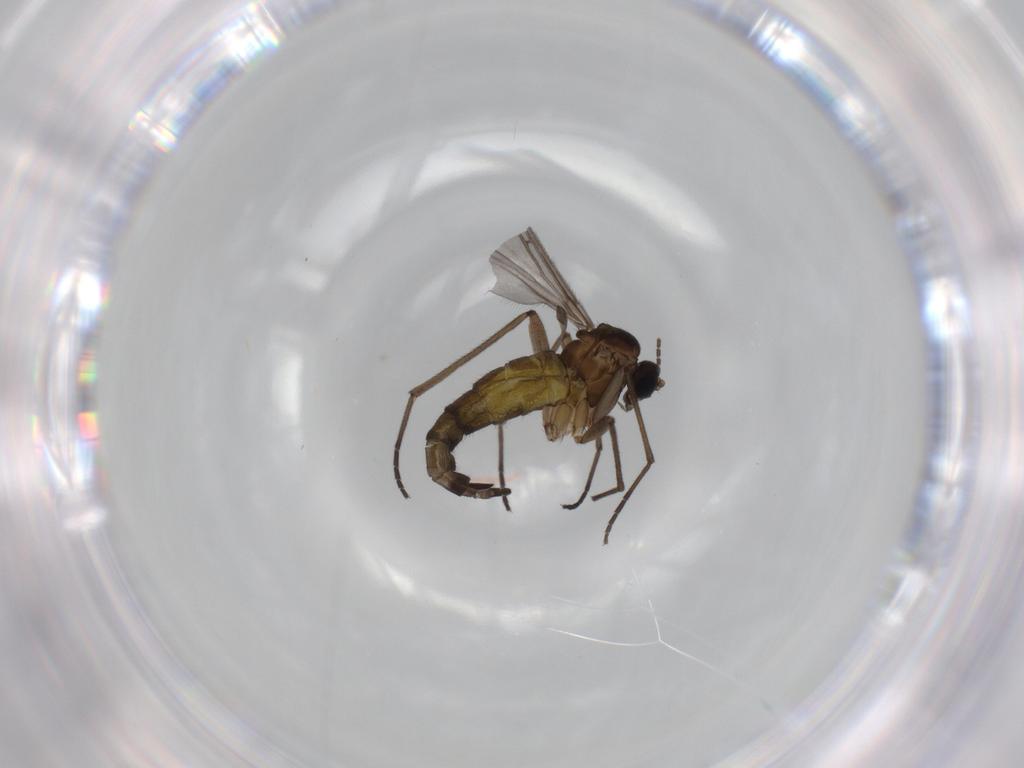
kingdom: Animalia
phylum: Arthropoda
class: Insecta
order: Diptera
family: Sciaridae
